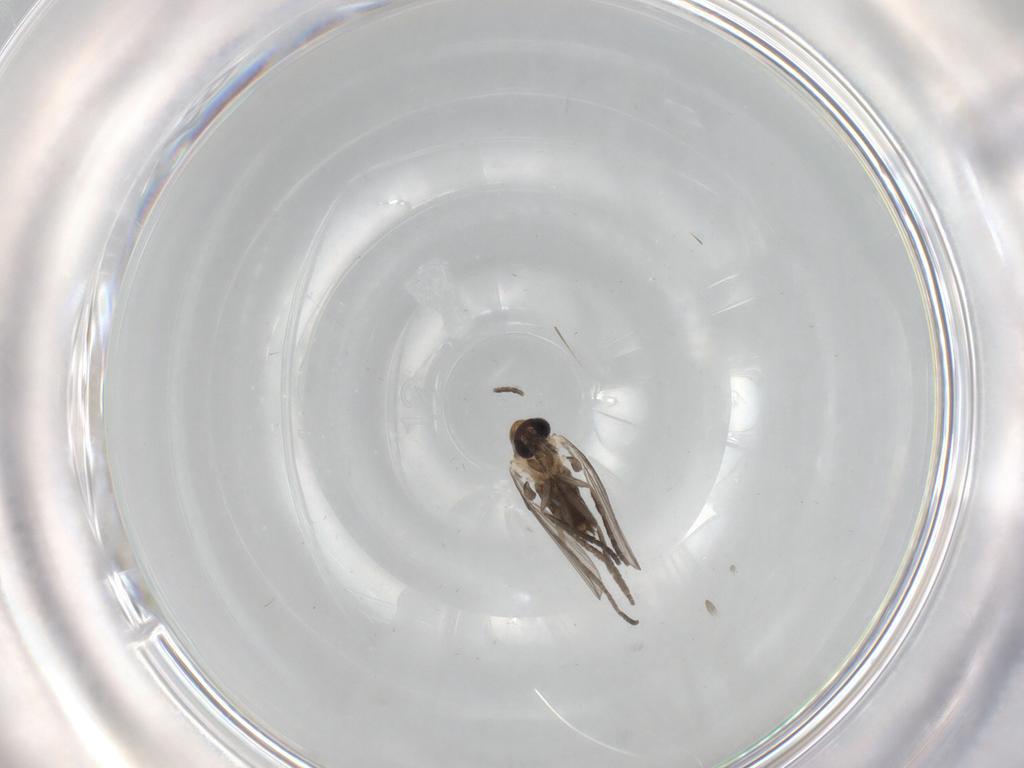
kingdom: Animalia
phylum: Arthropoda
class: Insecta
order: Diptera
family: Psychodidae
